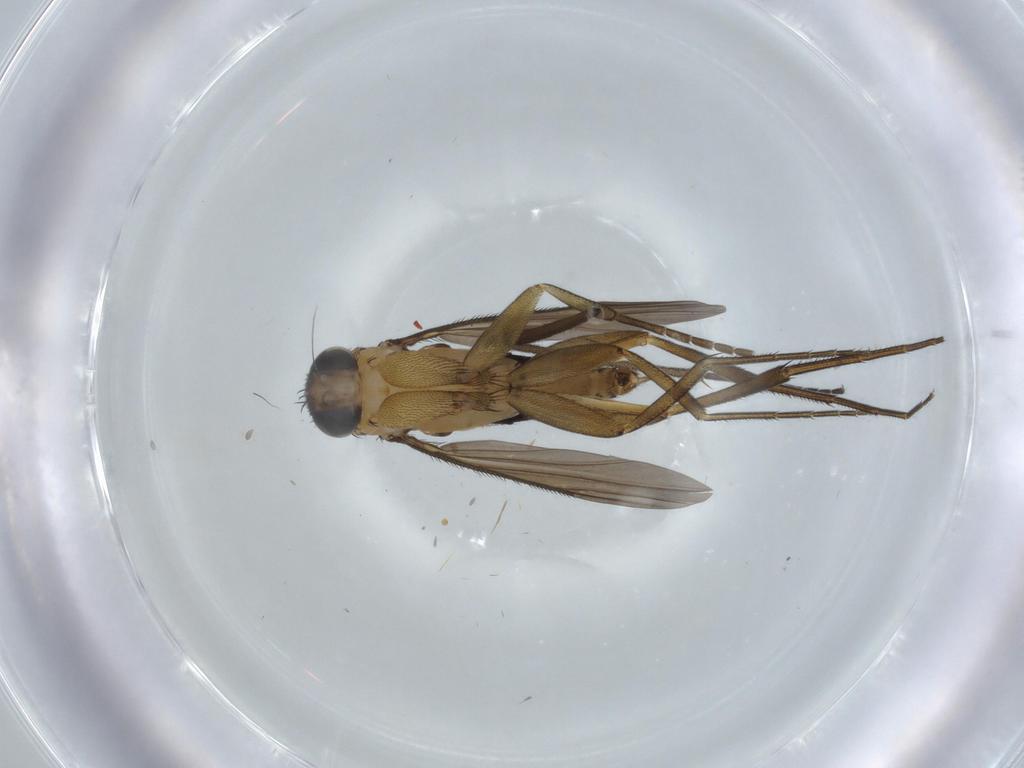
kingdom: Animalia
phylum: Arthropoda
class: Insecta
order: Diptera
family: Phoridae
